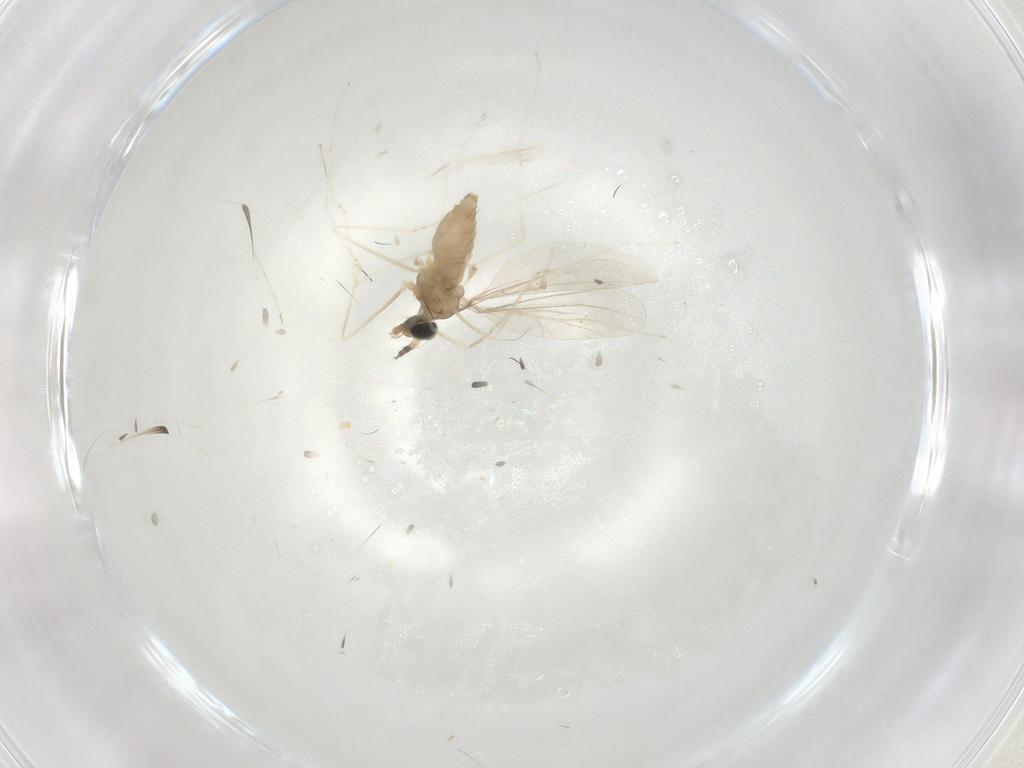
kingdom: Animalia
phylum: Arthropoda
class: Insecta
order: Diptera
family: Cecidomyiidae
